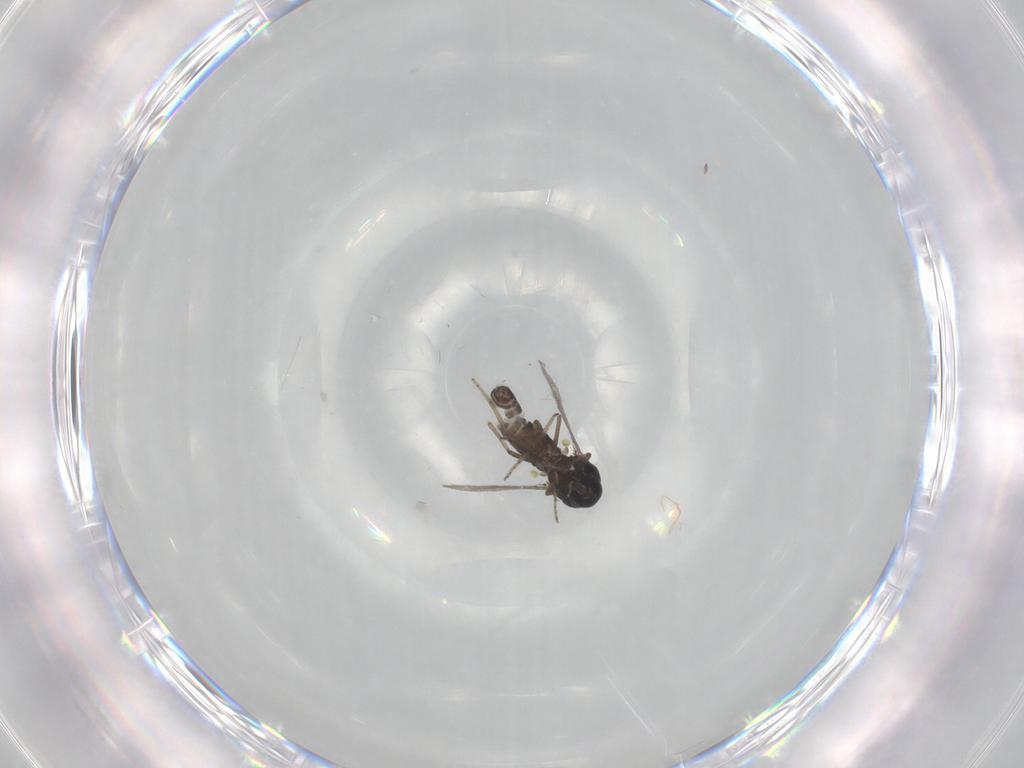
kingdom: Animalia
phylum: Arthropoda
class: Insecta
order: Diptera
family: Ceratopogonidae
